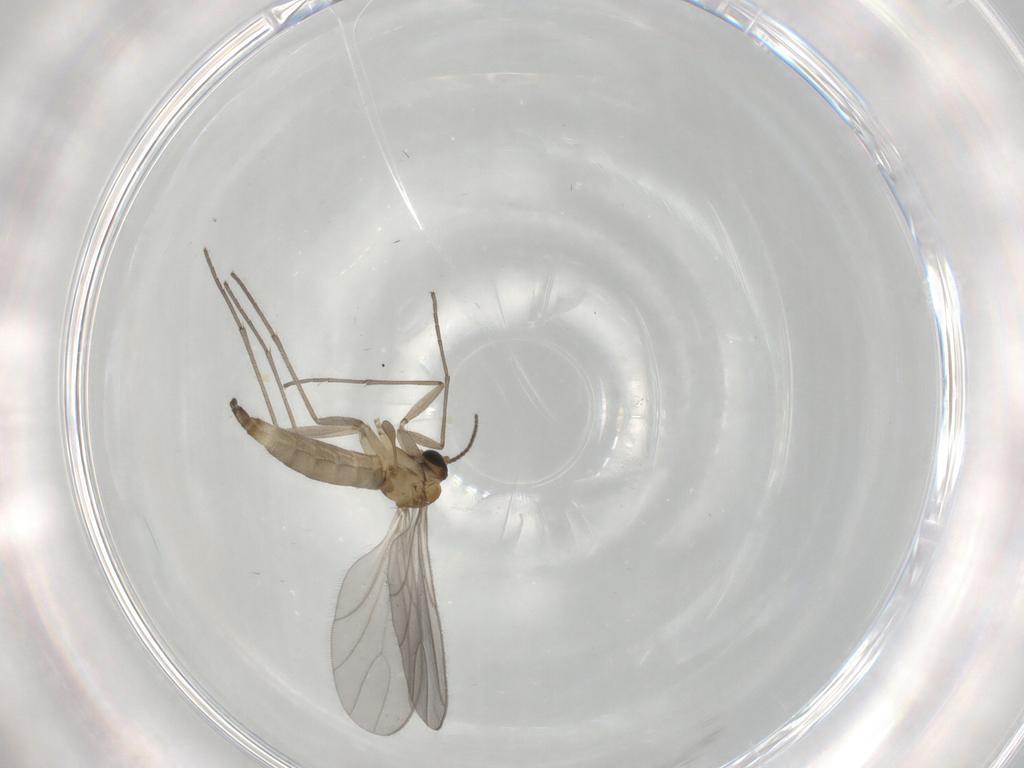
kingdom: Animalia
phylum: Arthropoda
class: Insecta
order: Diptera
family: Sciaridae
